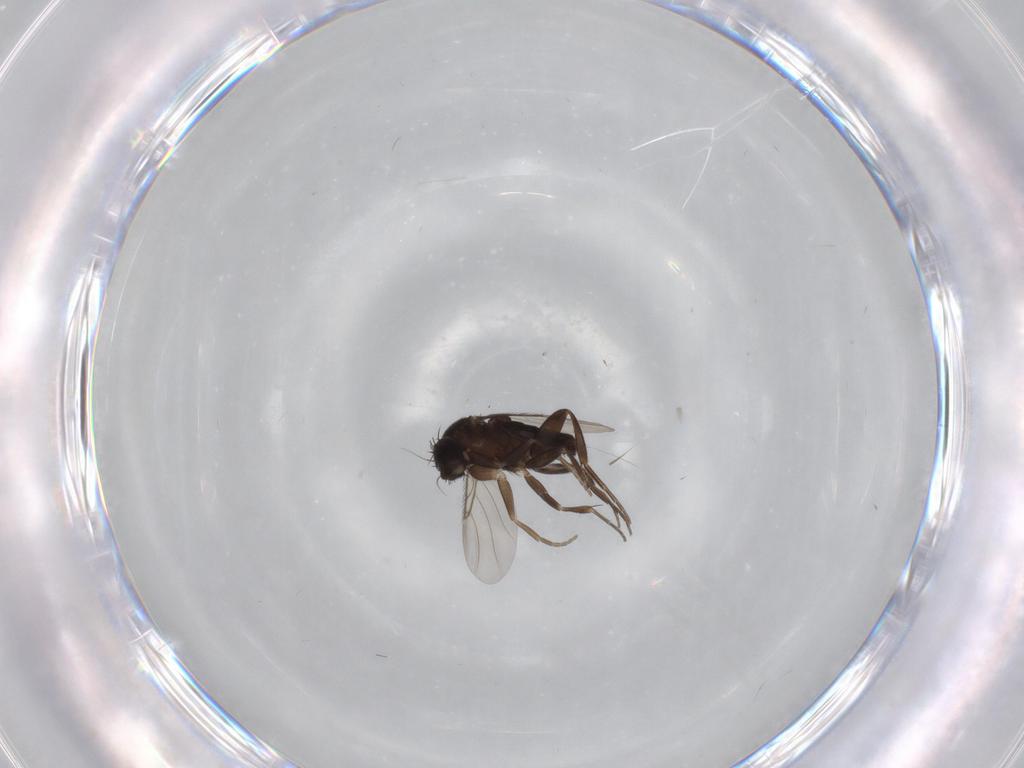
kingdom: Animalia
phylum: Arthropoda
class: Insecta
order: Diptera
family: Phoridae
